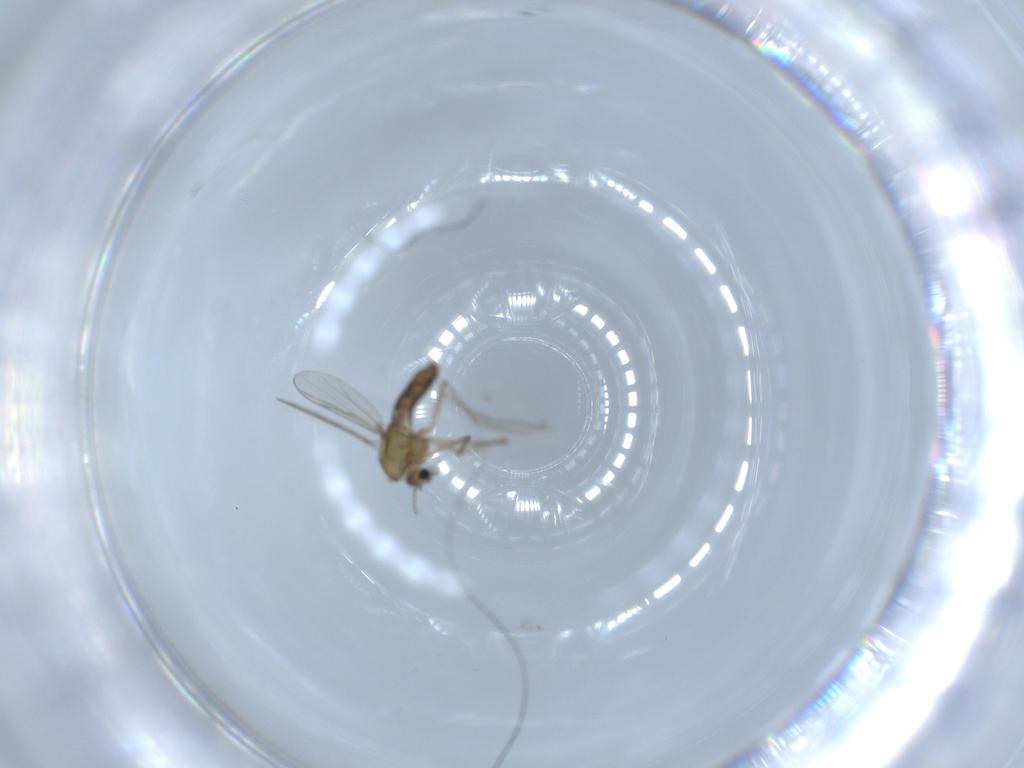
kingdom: Animalia
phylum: Arthropoda
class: Insecta
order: Diptera
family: Chironomidae
